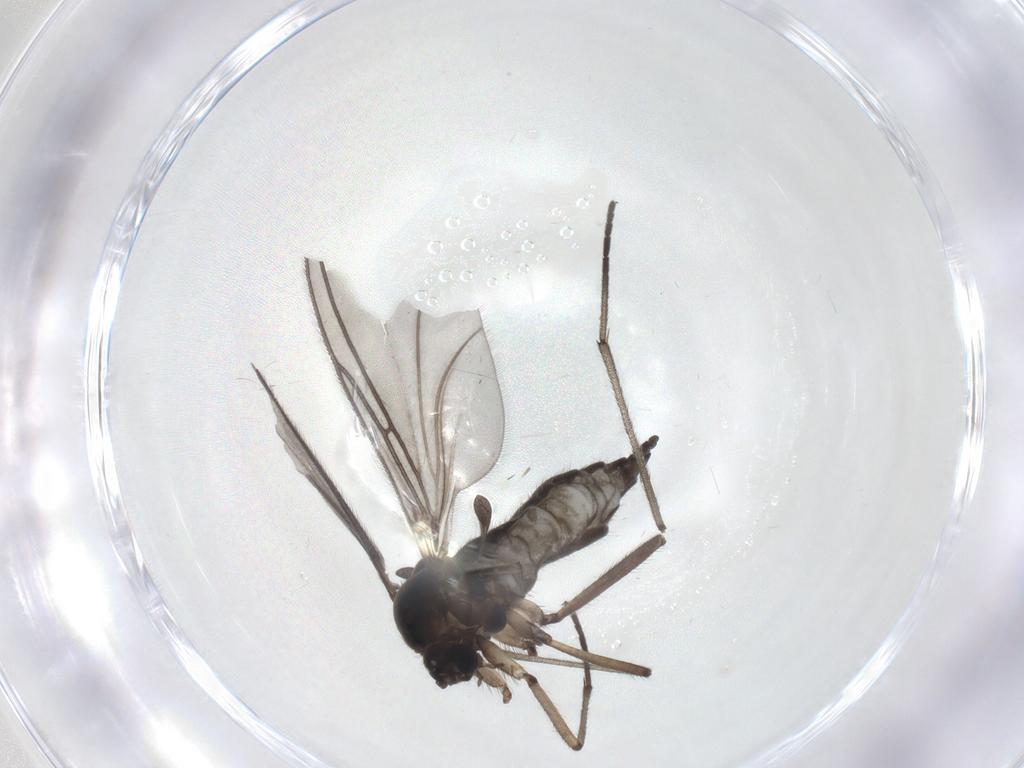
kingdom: Animalia
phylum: Arthropoda
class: Insecta
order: Diptera
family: Sciaridae
